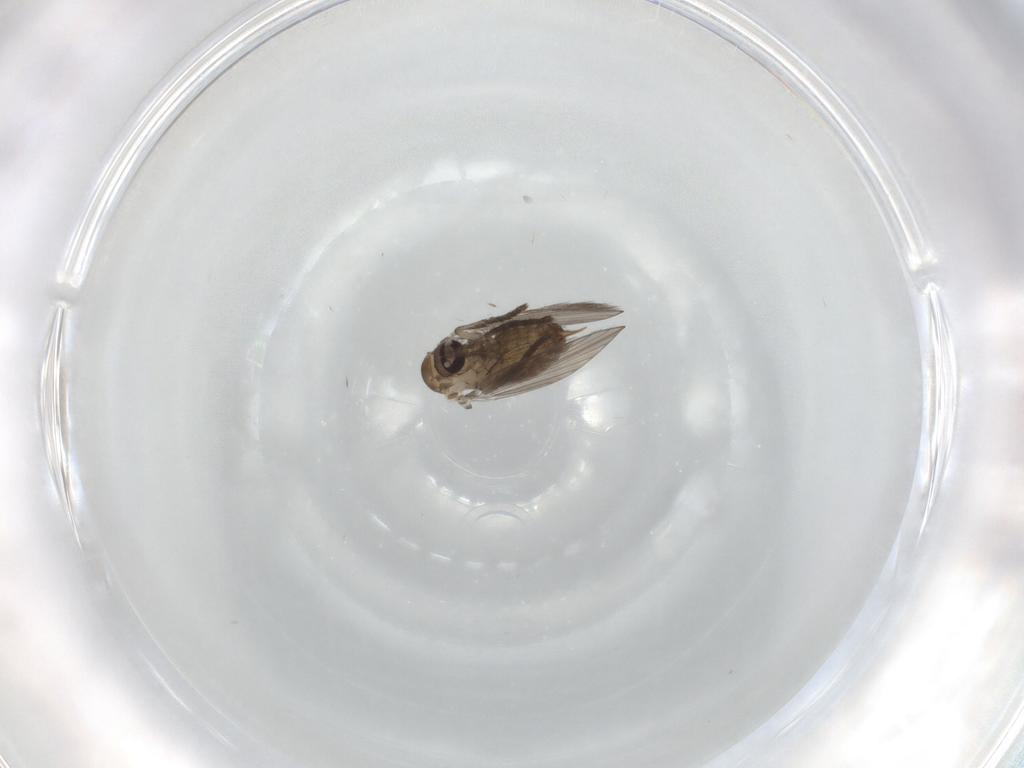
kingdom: Animalia
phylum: Arthropoda
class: Insecta
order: Diptera
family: Psychodidae
